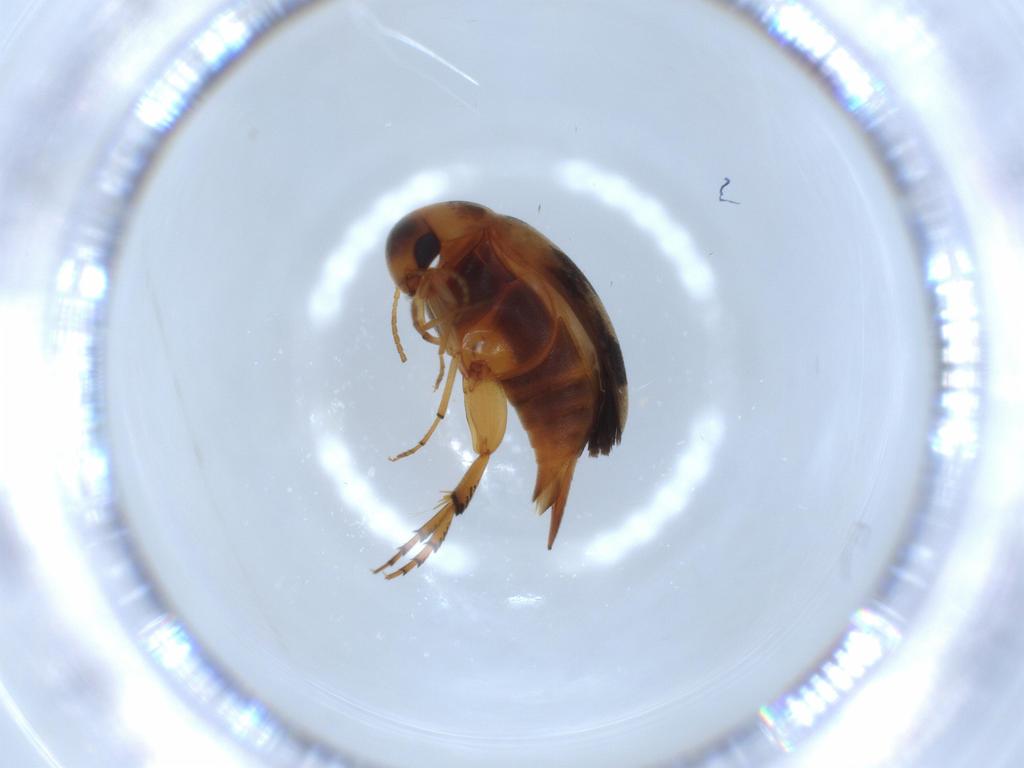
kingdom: Animalia
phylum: Arthropoda
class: Insecta
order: Coleoptera
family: Mordellidae
